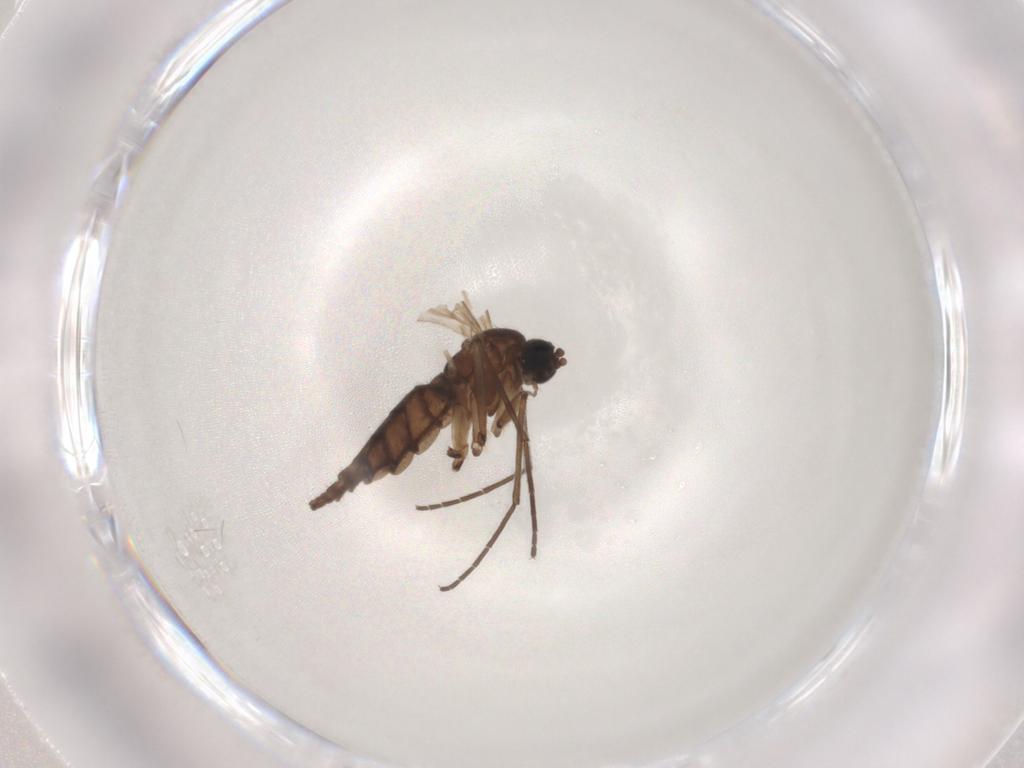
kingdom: Animalia
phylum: Arthropoda
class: Insecta
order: Diptera
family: Sciaridae
